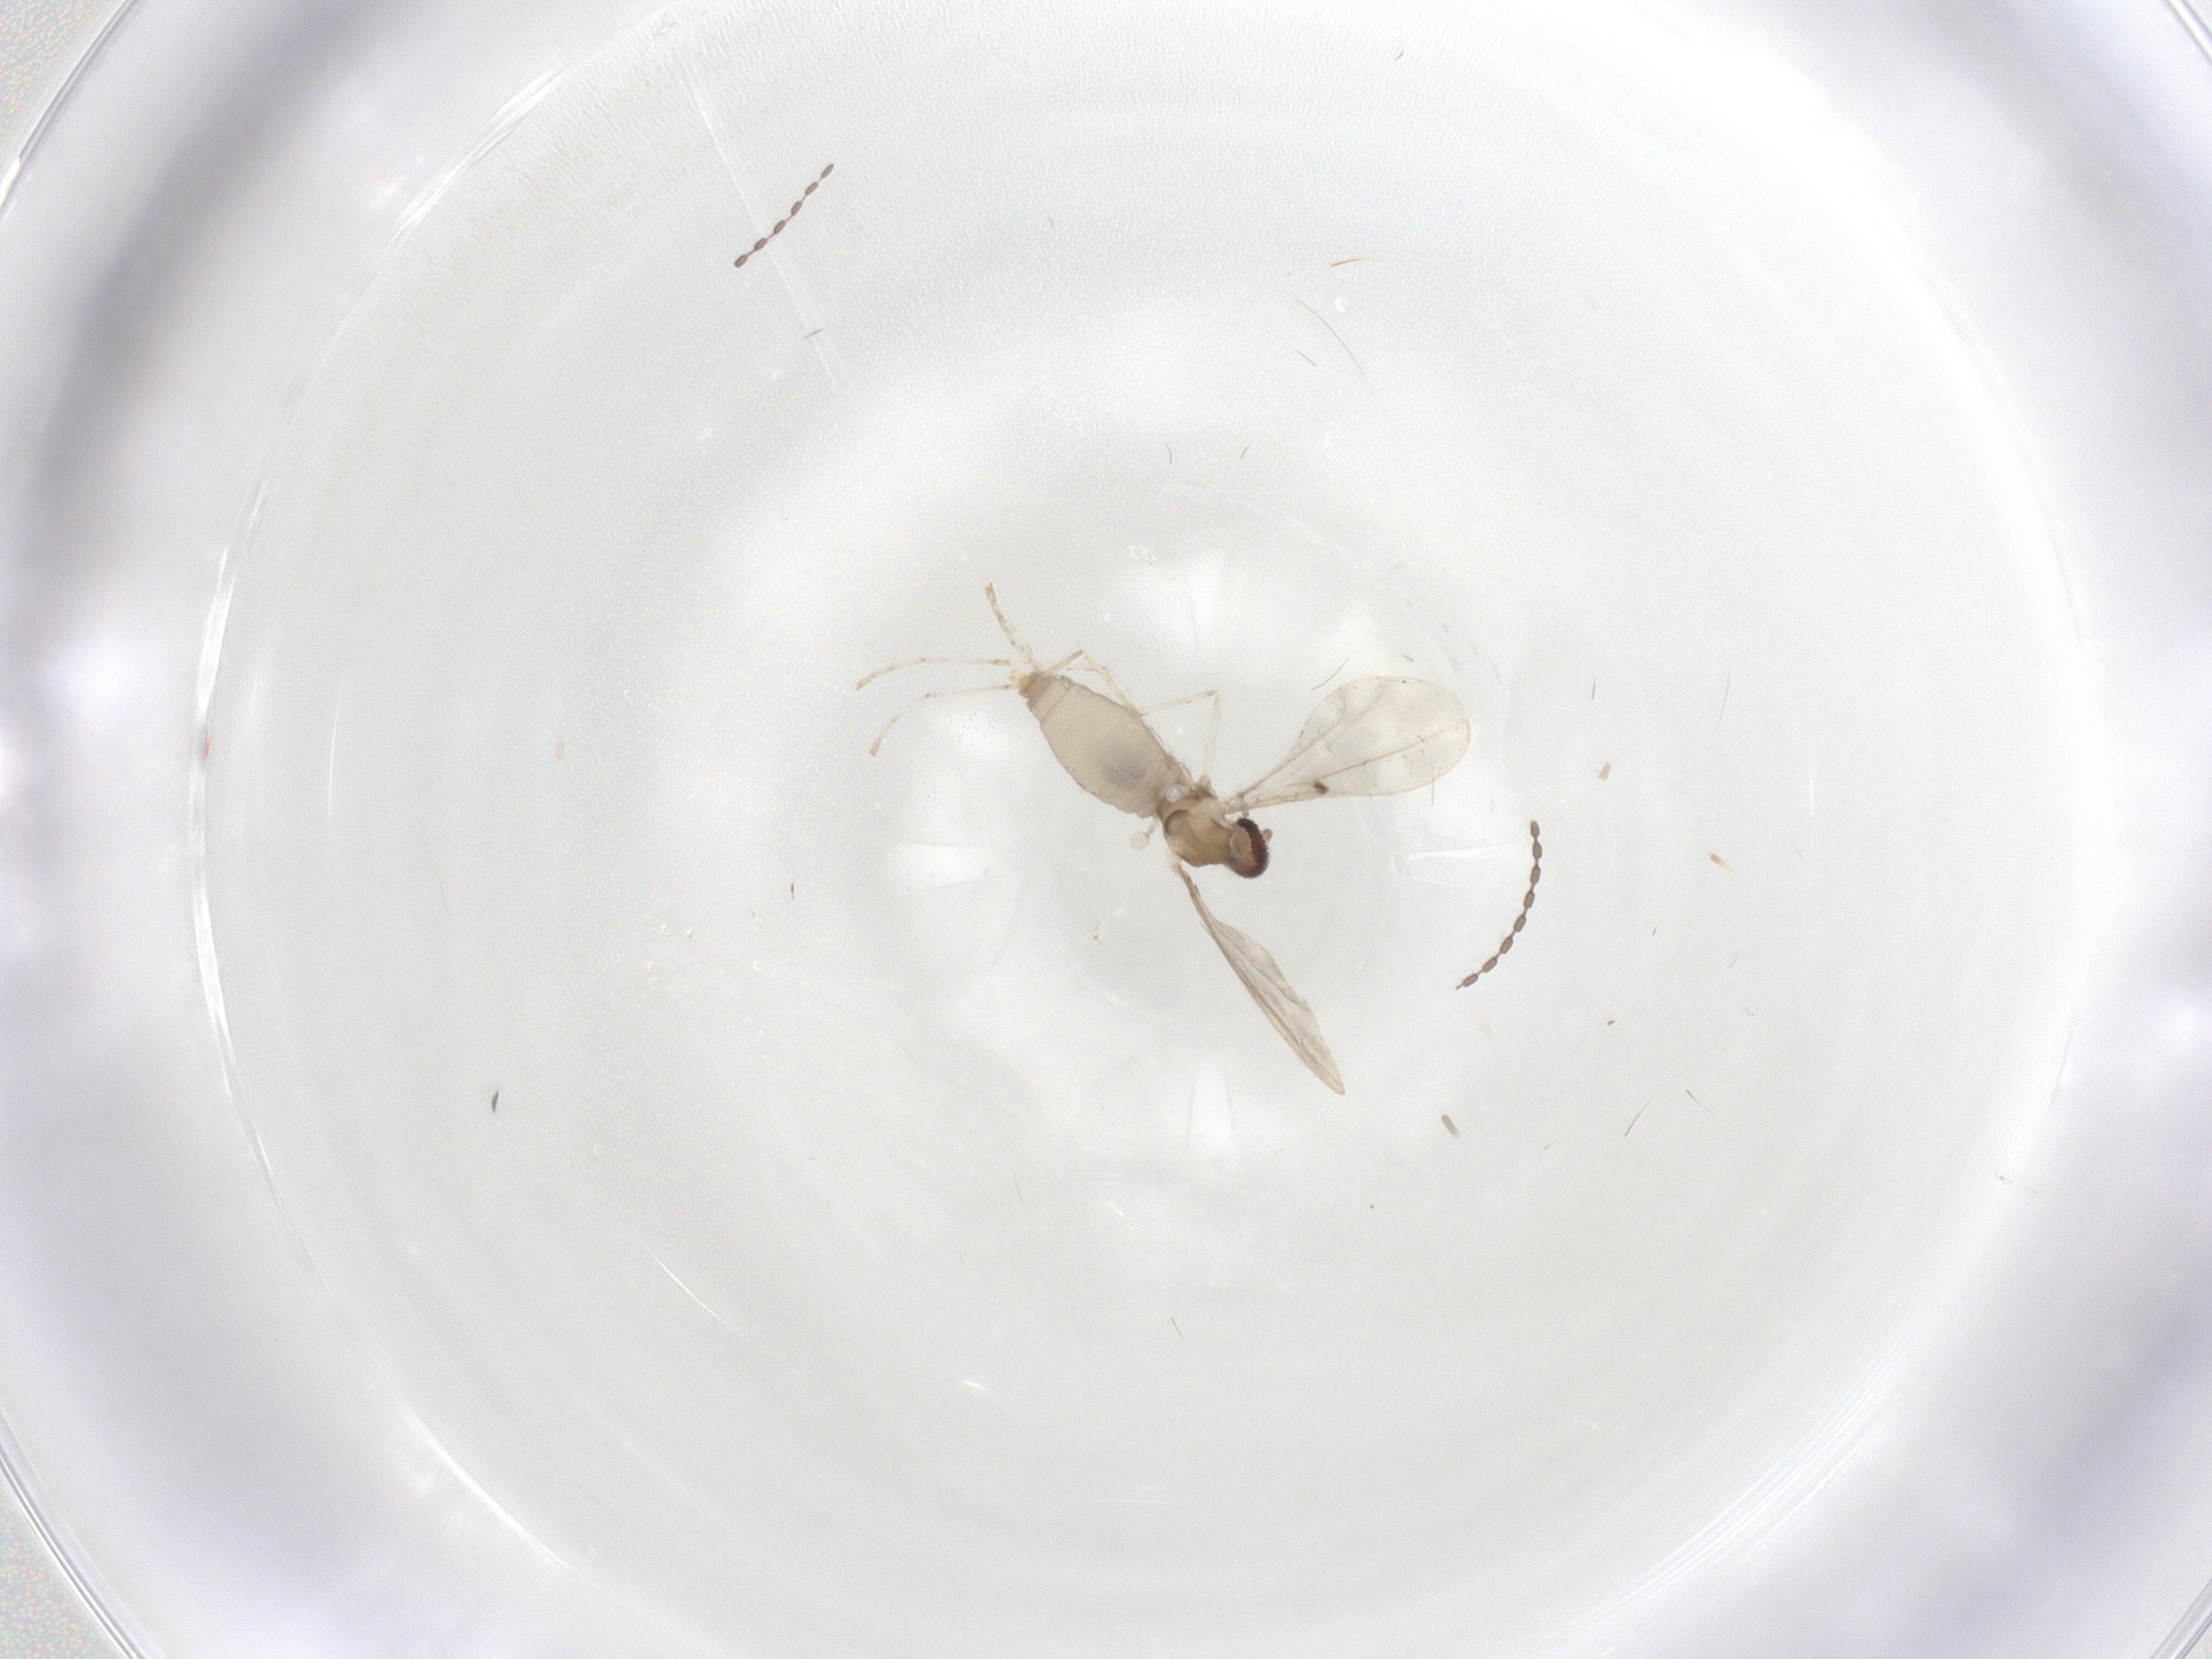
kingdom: Animalia
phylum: Arthropoda
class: Insecta
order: Diptera
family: Cecidomyiidae
